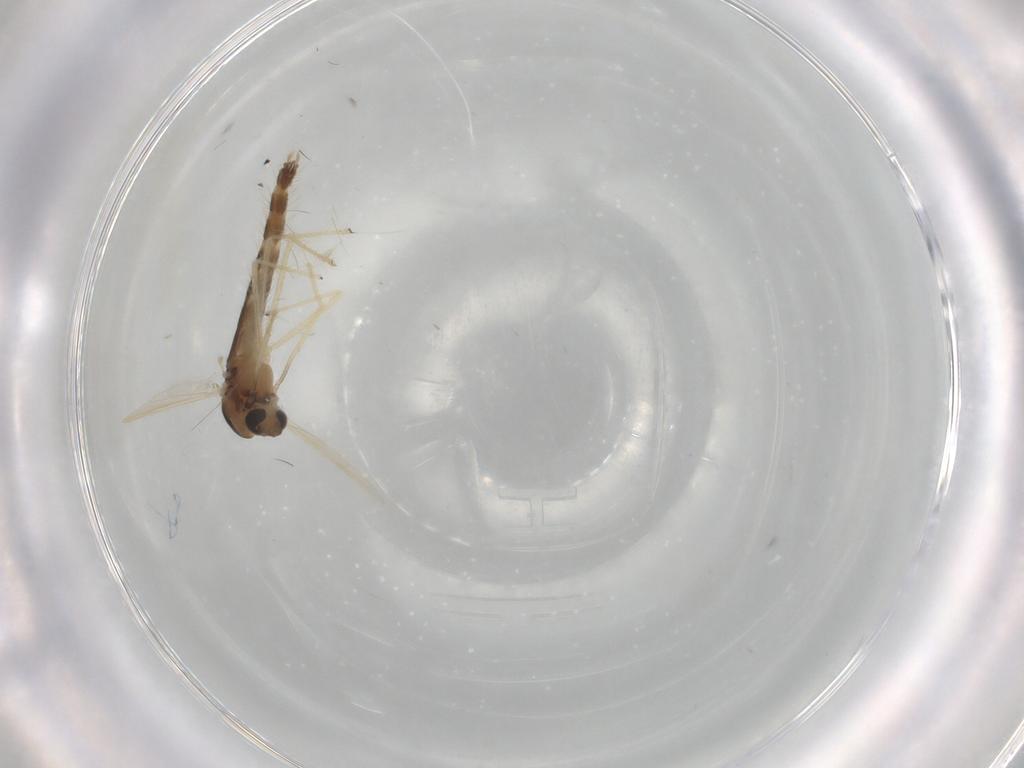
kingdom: Animalia
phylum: Arthropoda
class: Insecta
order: Diptera
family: Chironomidae
